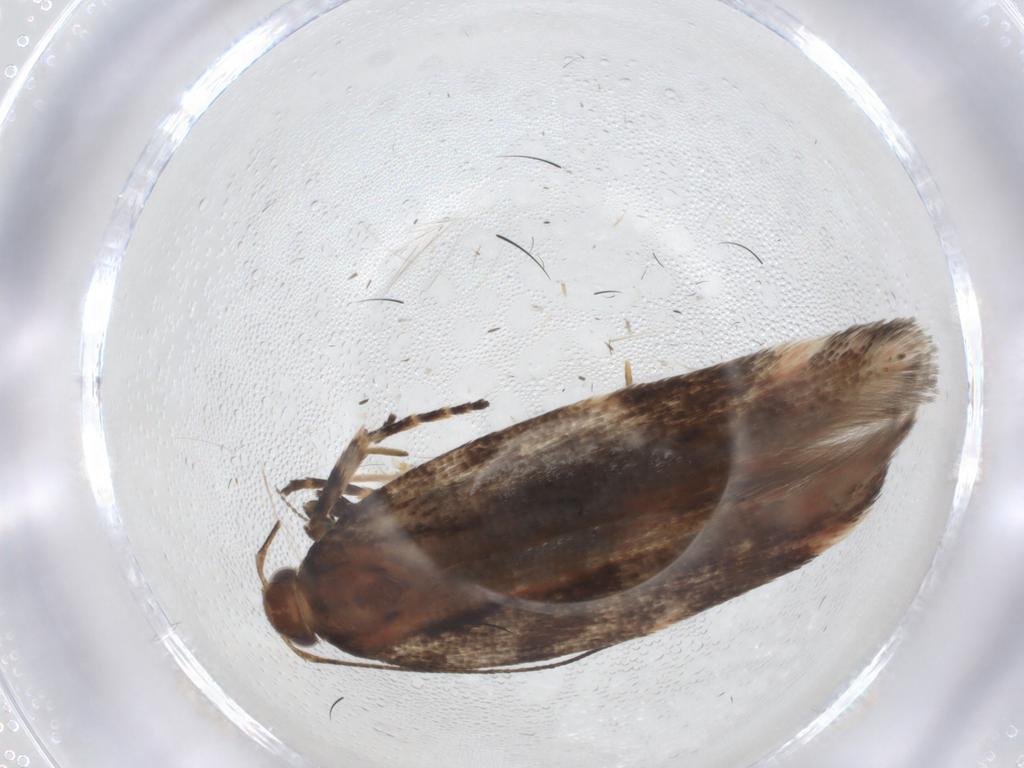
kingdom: Animalia
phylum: Arthropoda
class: Insecta
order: Lepidoptera
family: Gelechiidae
